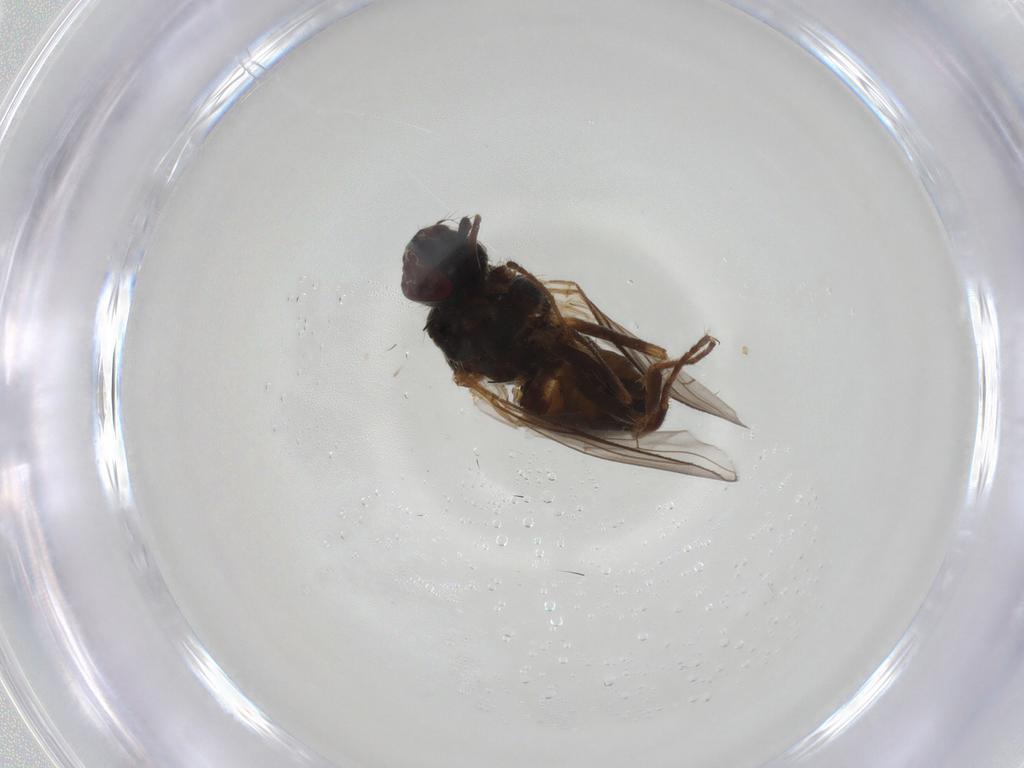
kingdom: Animalia
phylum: Arthropoda
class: Insecta
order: Diptera
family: Muscidae
